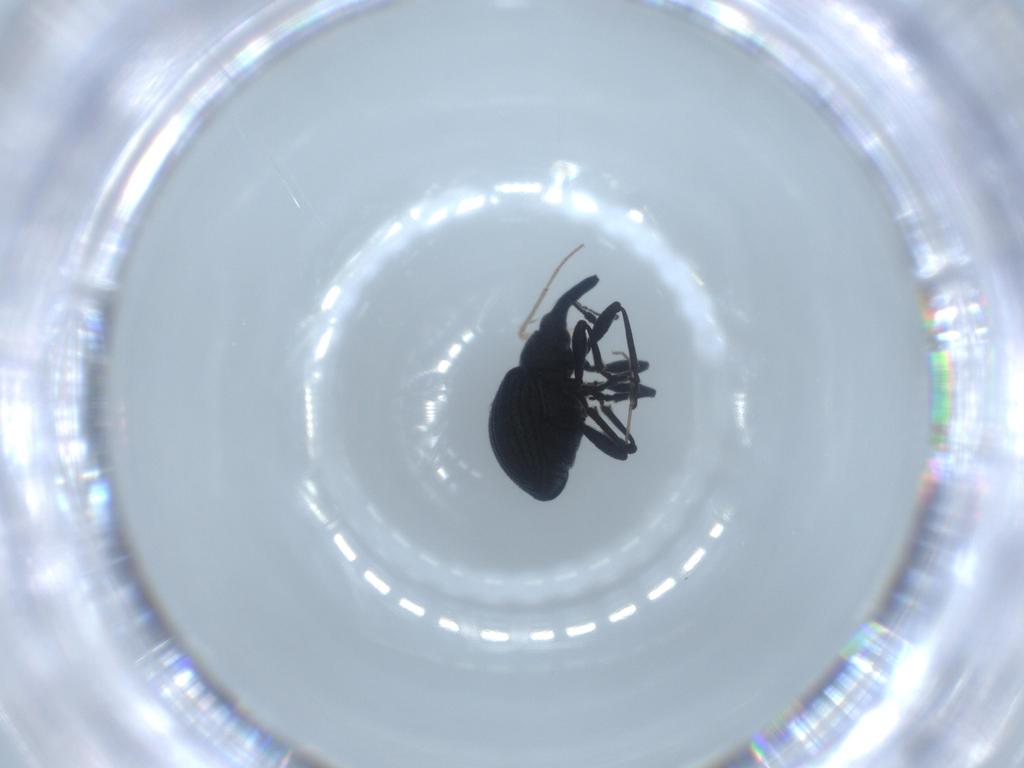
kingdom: Animalia
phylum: Arthropoda
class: Insecta
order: Coleoptera
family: Brentidae
